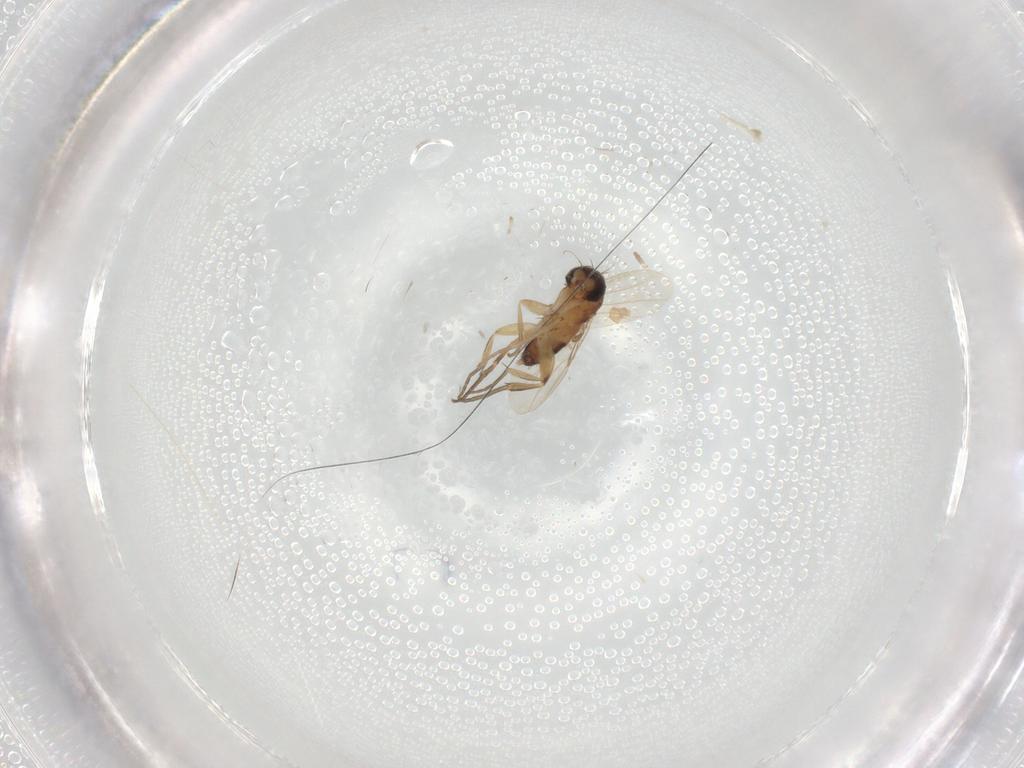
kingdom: Animalia
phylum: Arthropoda
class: Insecta
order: Diptera
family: Chloropidae
